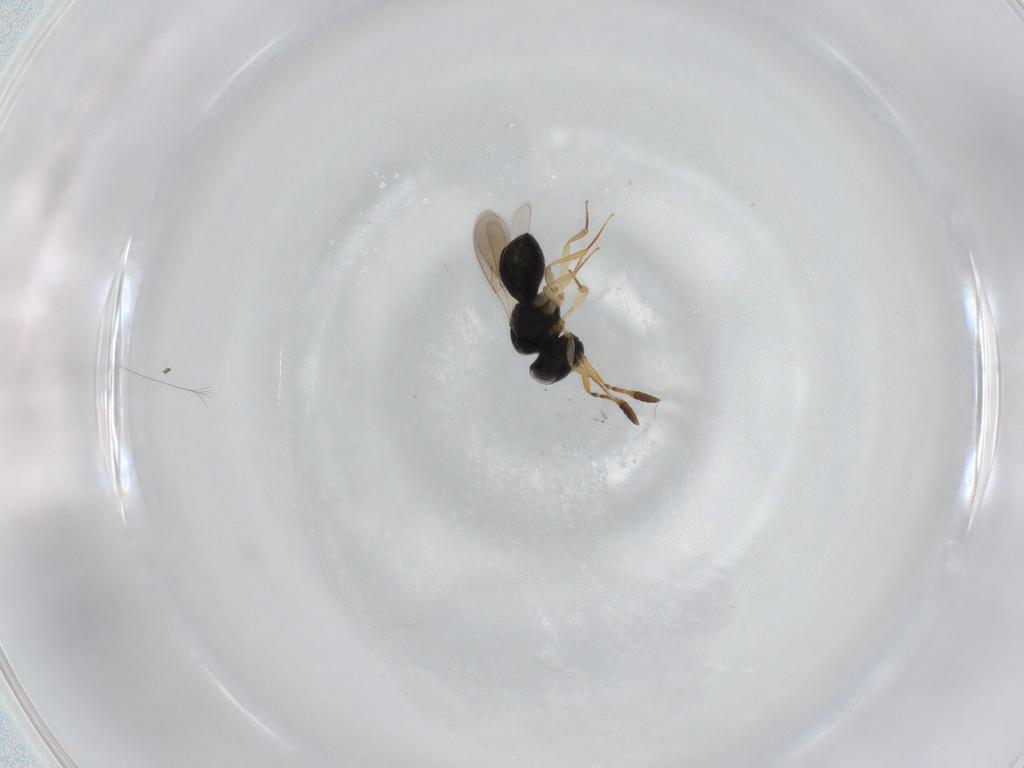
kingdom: Animalia
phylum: Arthropoda
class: Insecta
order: Hymenoptera
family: Scelionidae
